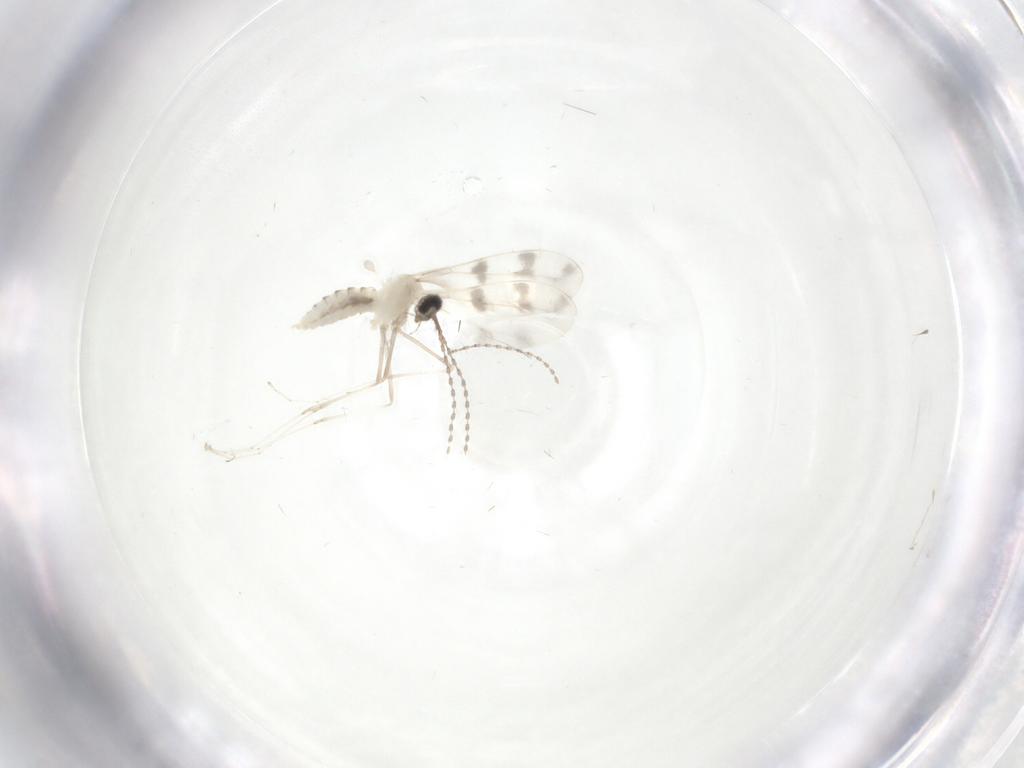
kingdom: Animalia
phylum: Arthropoda
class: Insecta
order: Diptera
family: Cecidomyiidae
